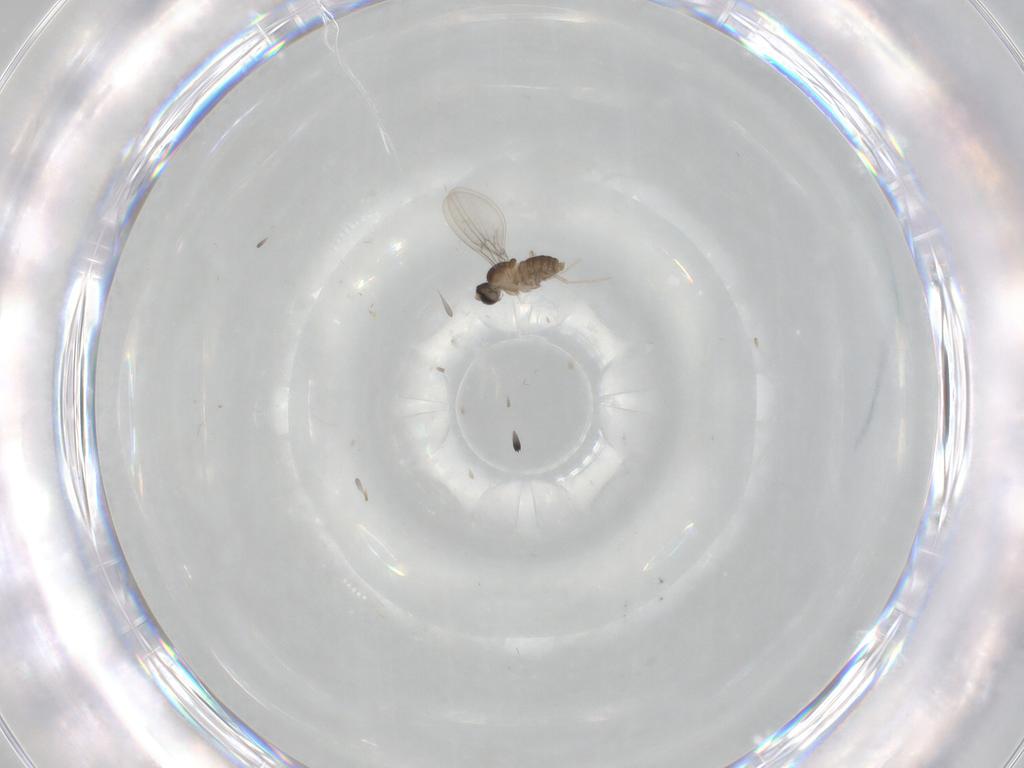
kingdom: Animalia
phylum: Arthropoda
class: Insecta
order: Diptera
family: Cecidomyiidae
